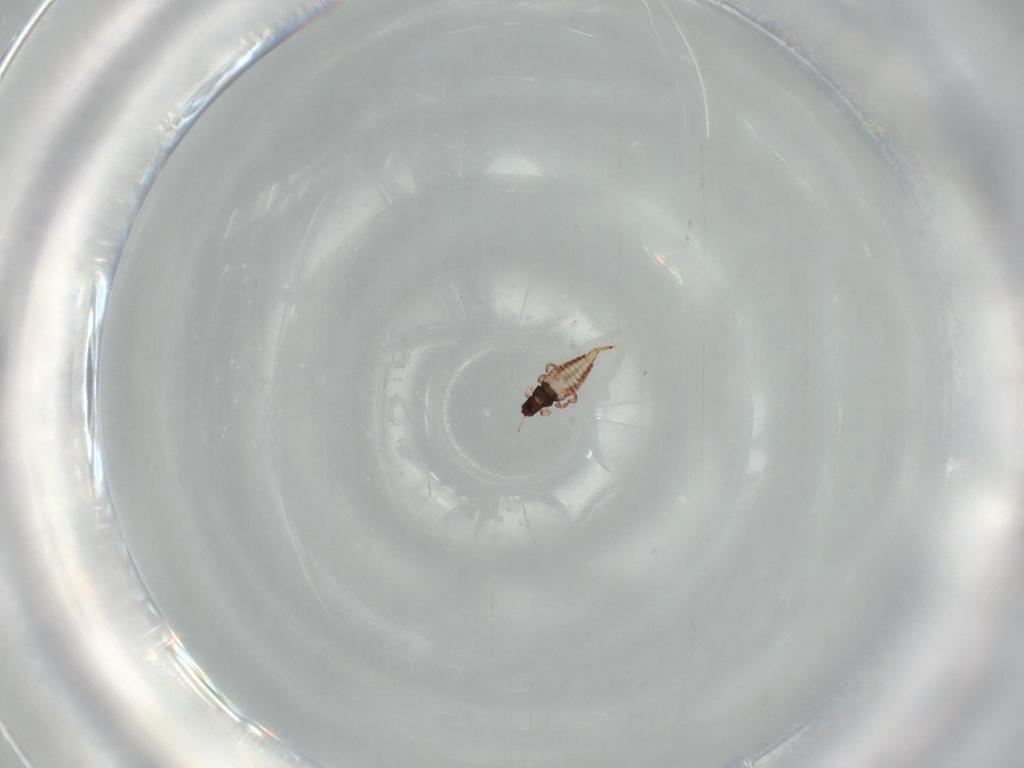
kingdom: Animalia
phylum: Arthropoda
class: Insecta
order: Thysanoptera
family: Phlaeothripidae
